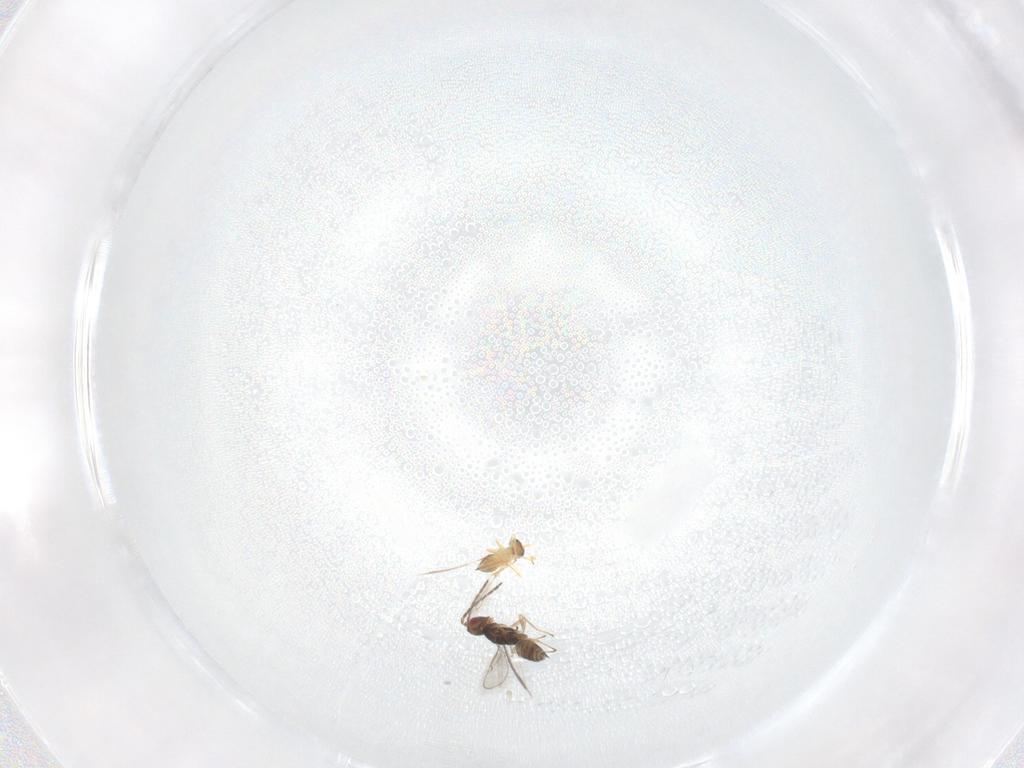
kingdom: Animalia
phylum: Arthropoda
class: Insecta
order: Hymenoptera
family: Eulophidae
